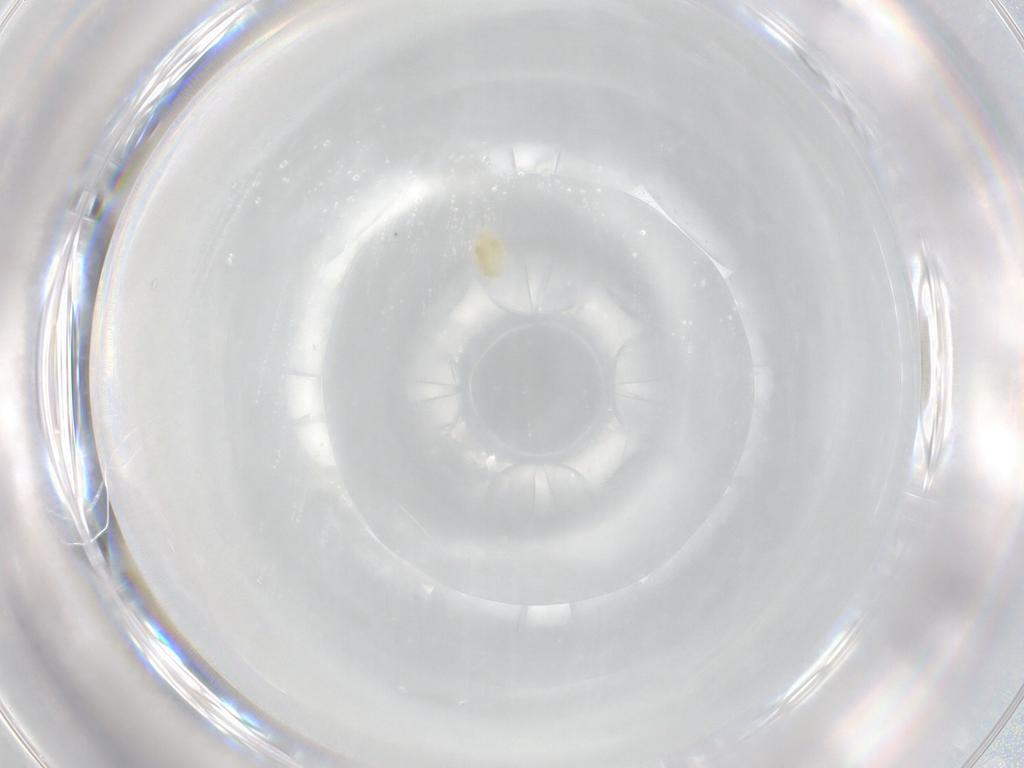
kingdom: Animalia
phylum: Arthropoda
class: Arachnida
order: Trombidiformes
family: Eupodidae
